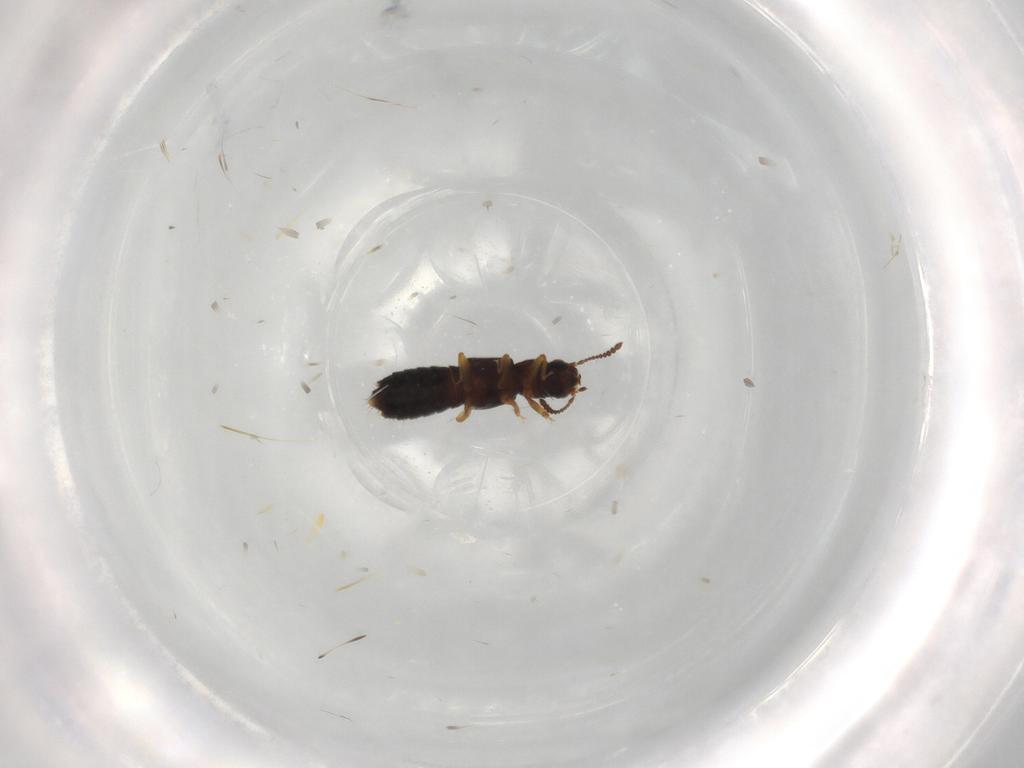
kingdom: Animalia
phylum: Arthropoda
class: Insecta
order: Coleoptera
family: Staphylinidae
